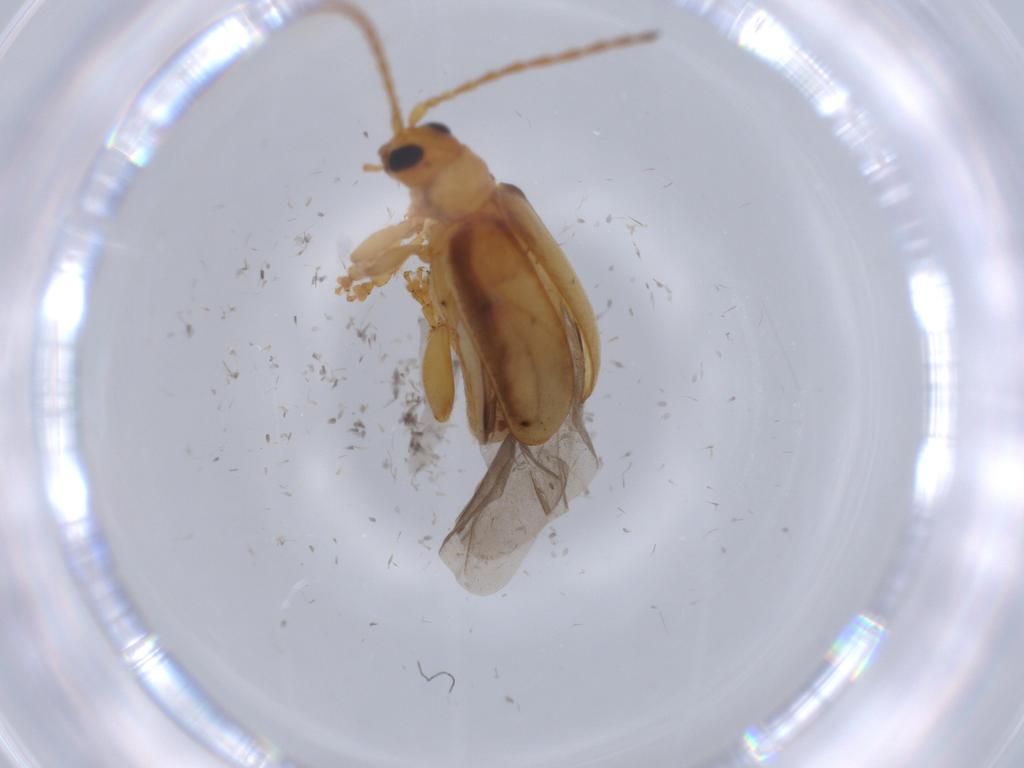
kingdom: Animalia
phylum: Arthropoda
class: Insecta
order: Coleoptera
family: Chrysomelidae
